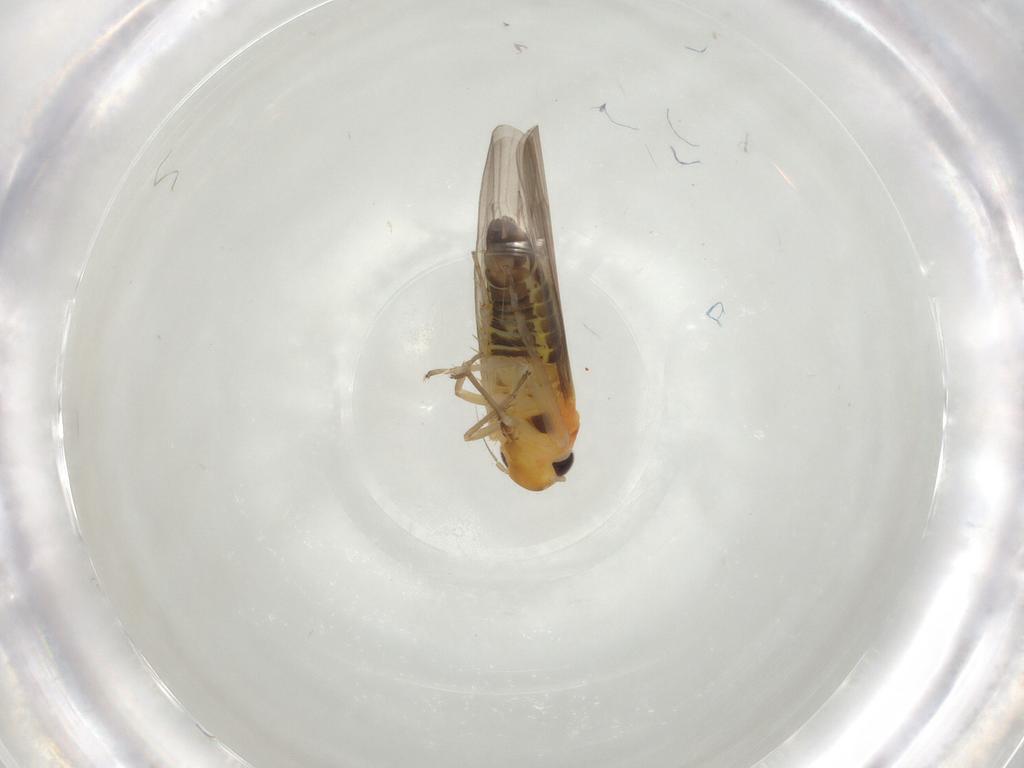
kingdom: Animalia
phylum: Arthropoda
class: Insecta
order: Hemiptera
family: Cicadellidae
